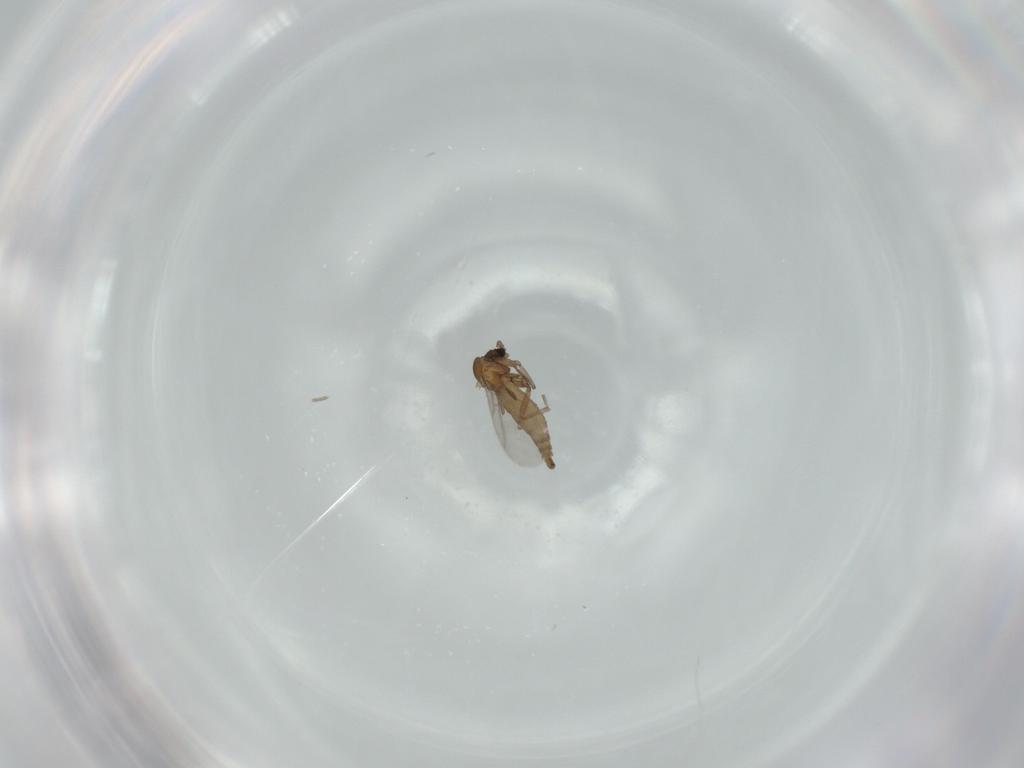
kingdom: Animalia
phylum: Arthropoda
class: Insecta
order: Diptera
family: Sciaridae
